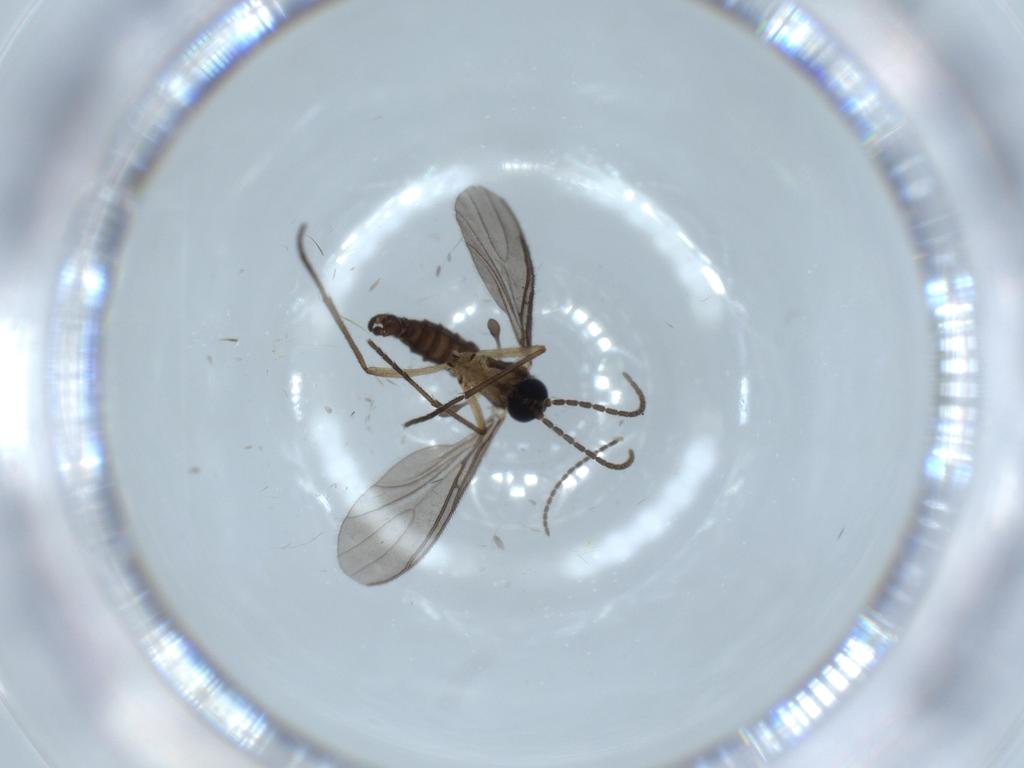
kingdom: Animalia
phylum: Arthropoda
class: Insecta
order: Diptera
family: Sciaridae
